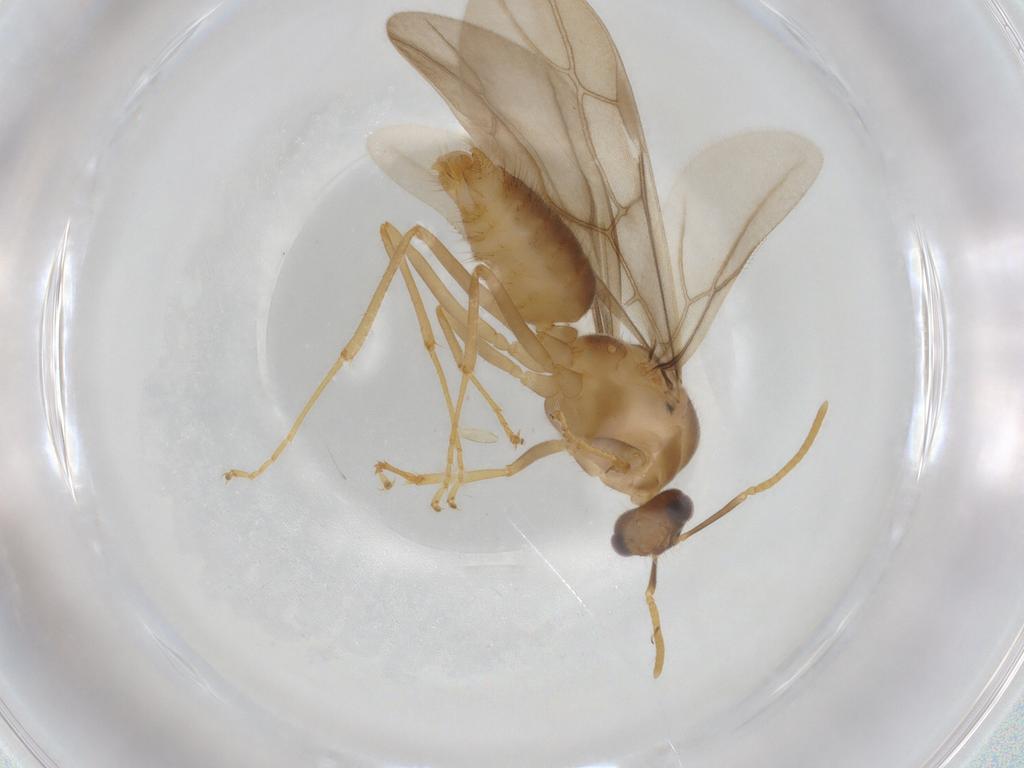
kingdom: Animalia
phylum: Arthropoda
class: Insecta
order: Hymenoptera
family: Formicidae
